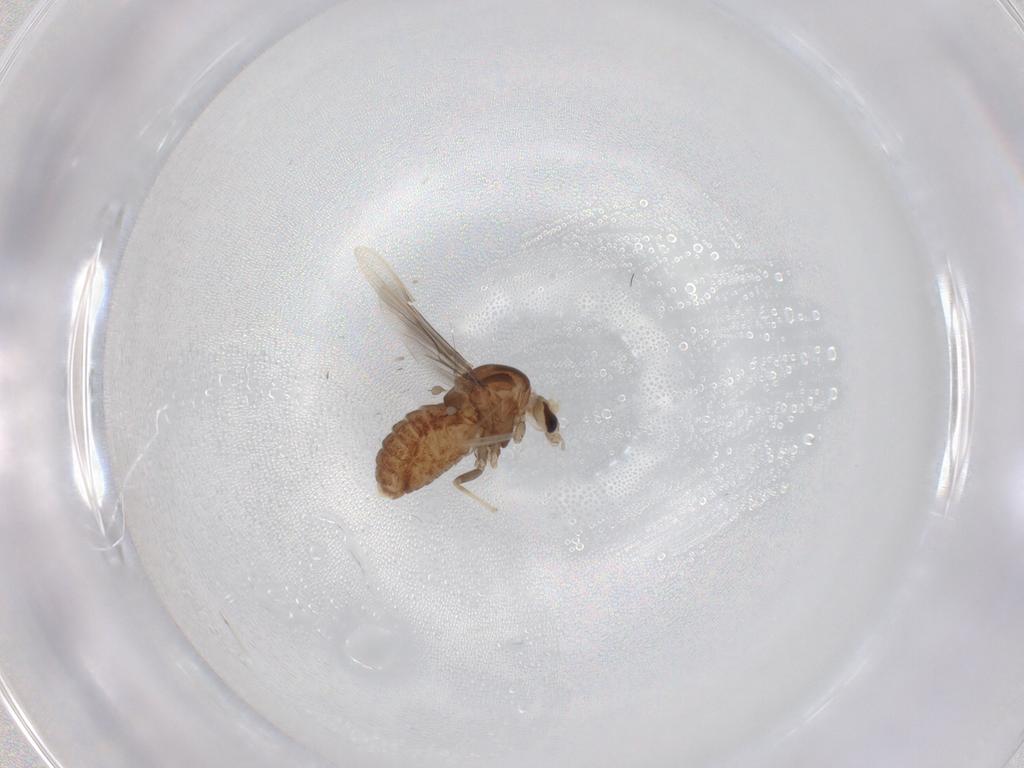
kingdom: Animalia
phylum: Arthropoda
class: Insecta
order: Diptera
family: Chironomidae
